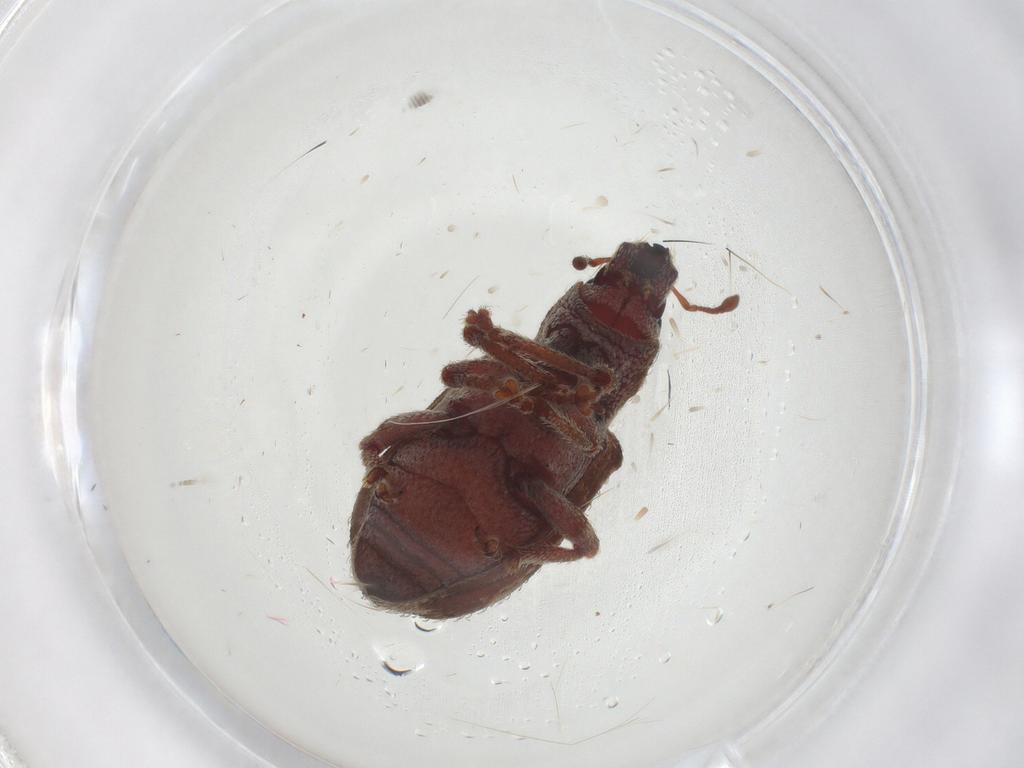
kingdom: Animalia
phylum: Arthropoda
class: Insecta
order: Coleoptera
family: Curculionidae
